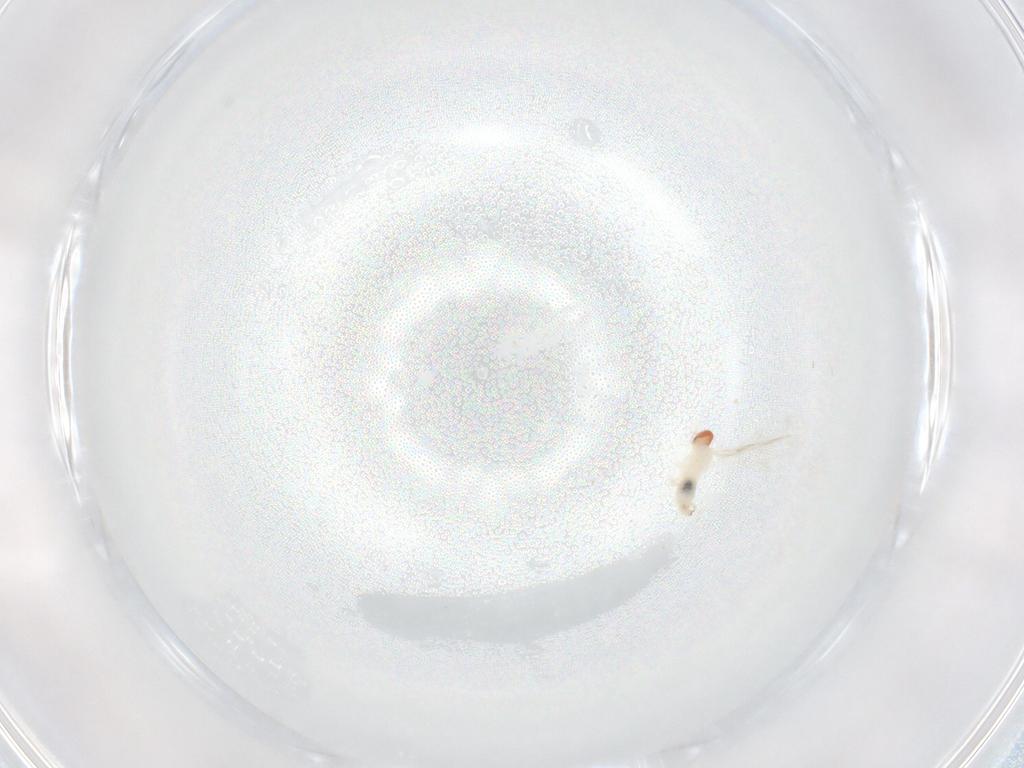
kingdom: Animalia
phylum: Arthropoda
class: Insecta
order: Diptera
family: Cecidomyiidae
